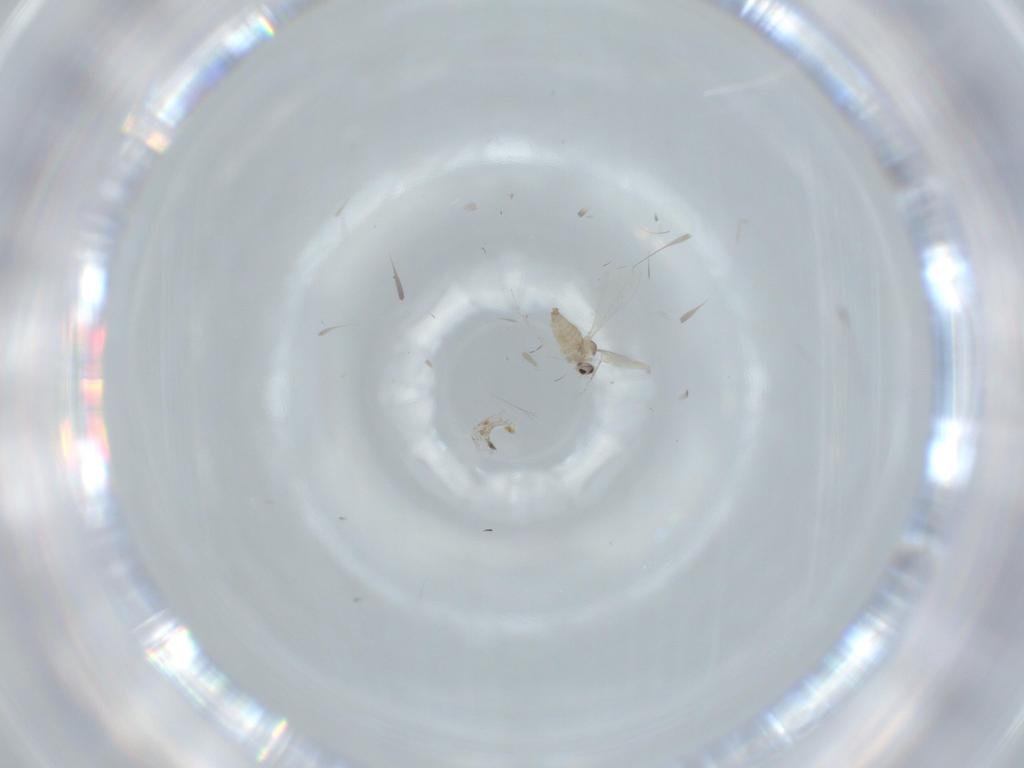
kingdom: Animalia
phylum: Arthropoda
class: Insecta
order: Diptera
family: Cecidomyiidae
